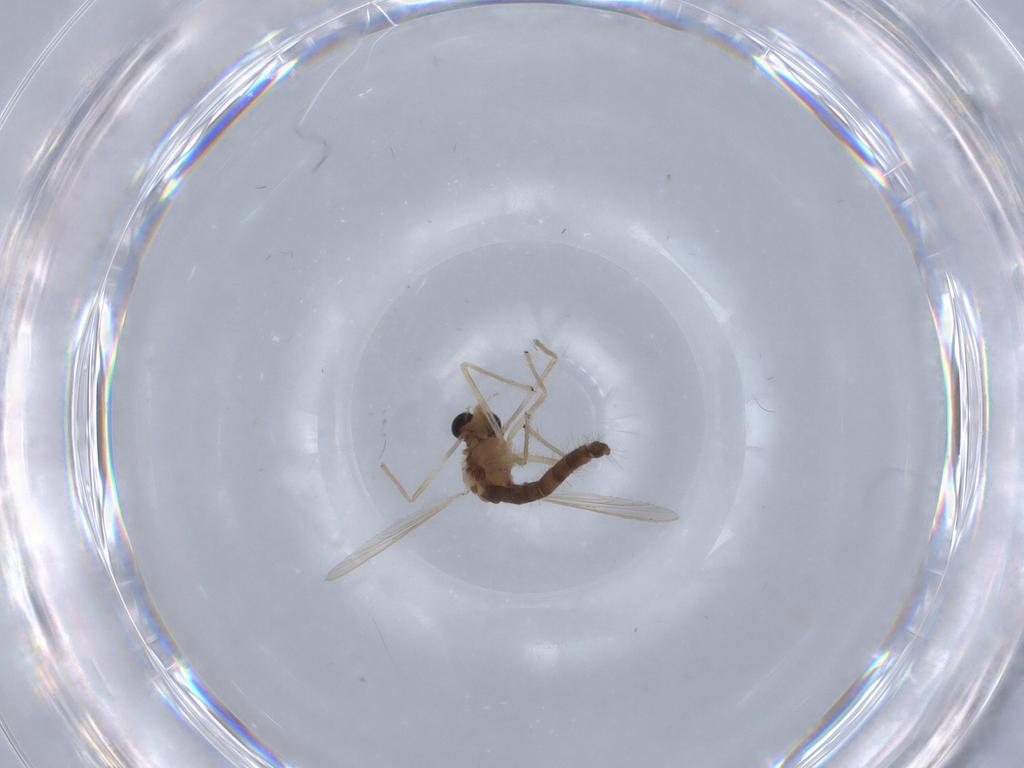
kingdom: Animalia
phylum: Arthropoda
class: Insecta
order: Diptera
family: Chironomidae
